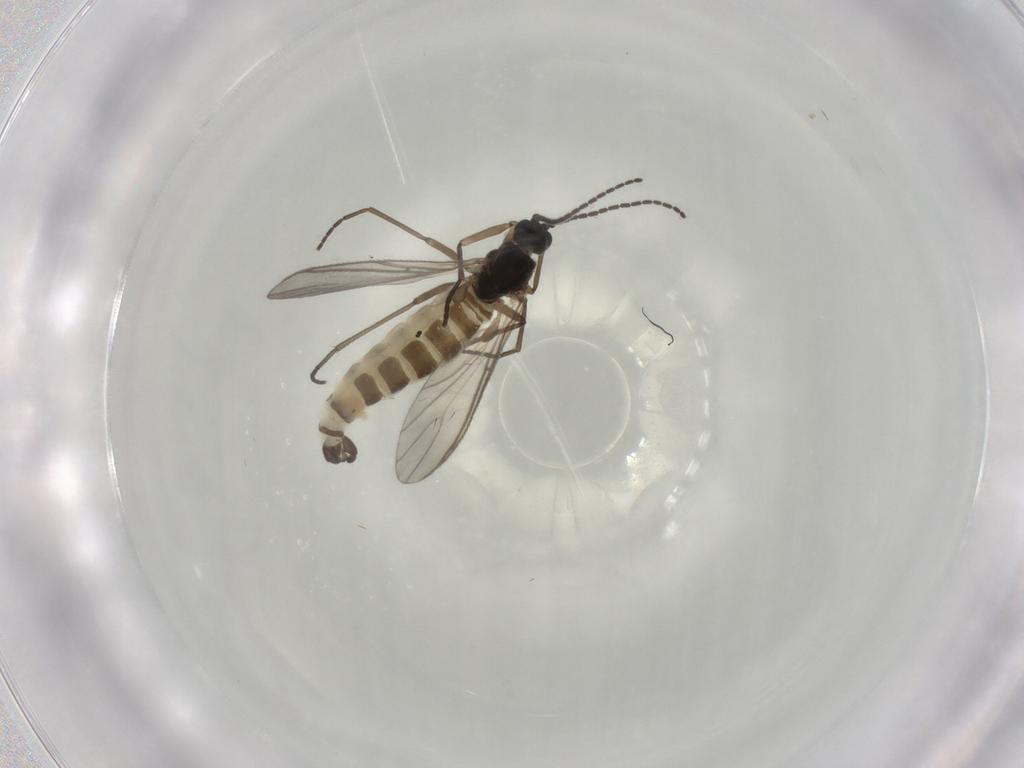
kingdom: Animalia
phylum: Arthropoda
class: Insecta
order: Diptera
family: Sciaridae
